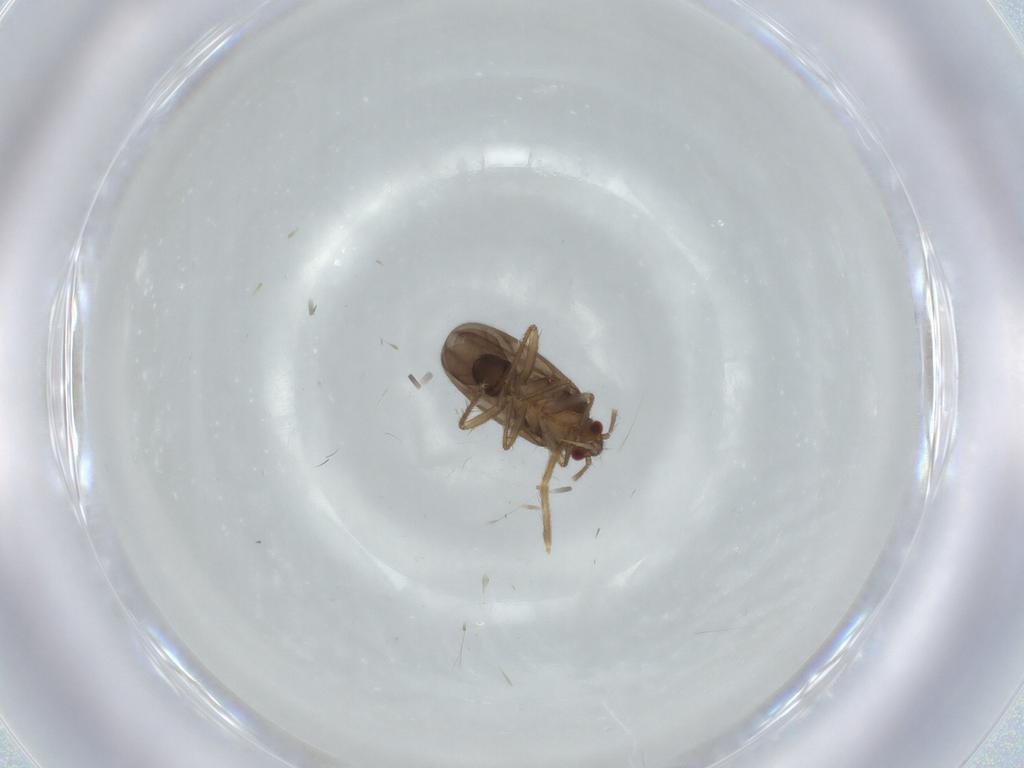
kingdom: Animalia
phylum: Arthropoda
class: Insecta
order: Hemiptera
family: Ceratocombidae
